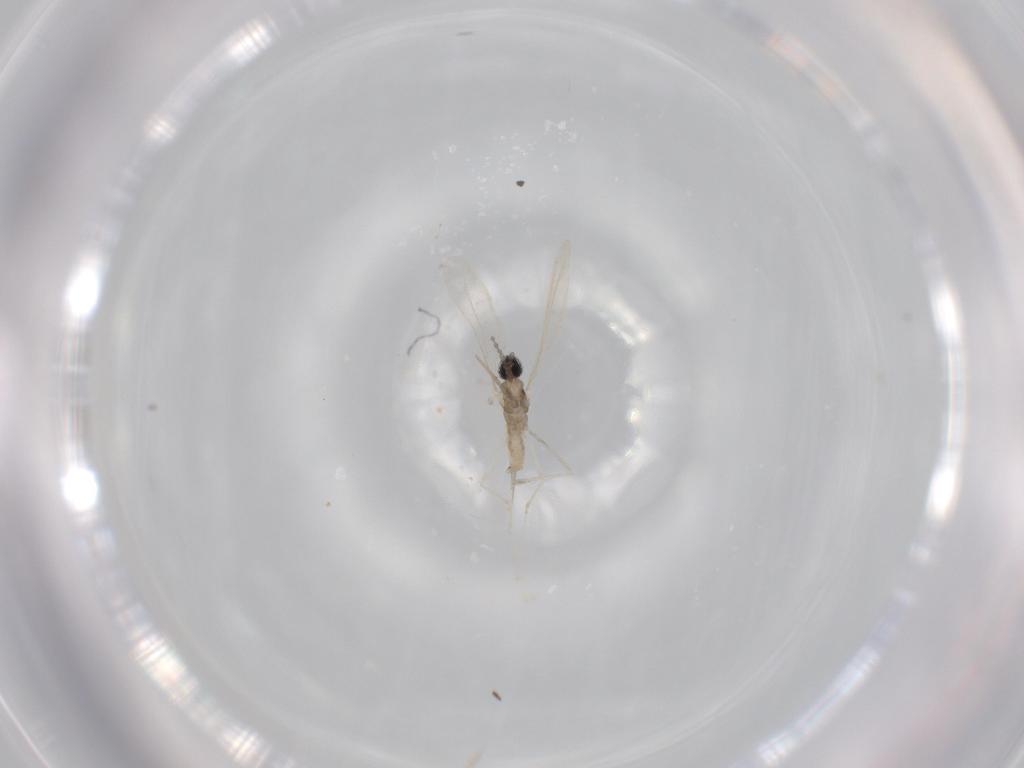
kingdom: Animalia
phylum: Arthropoda
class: Insecta
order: Diptera
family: Cecidomyiidae
